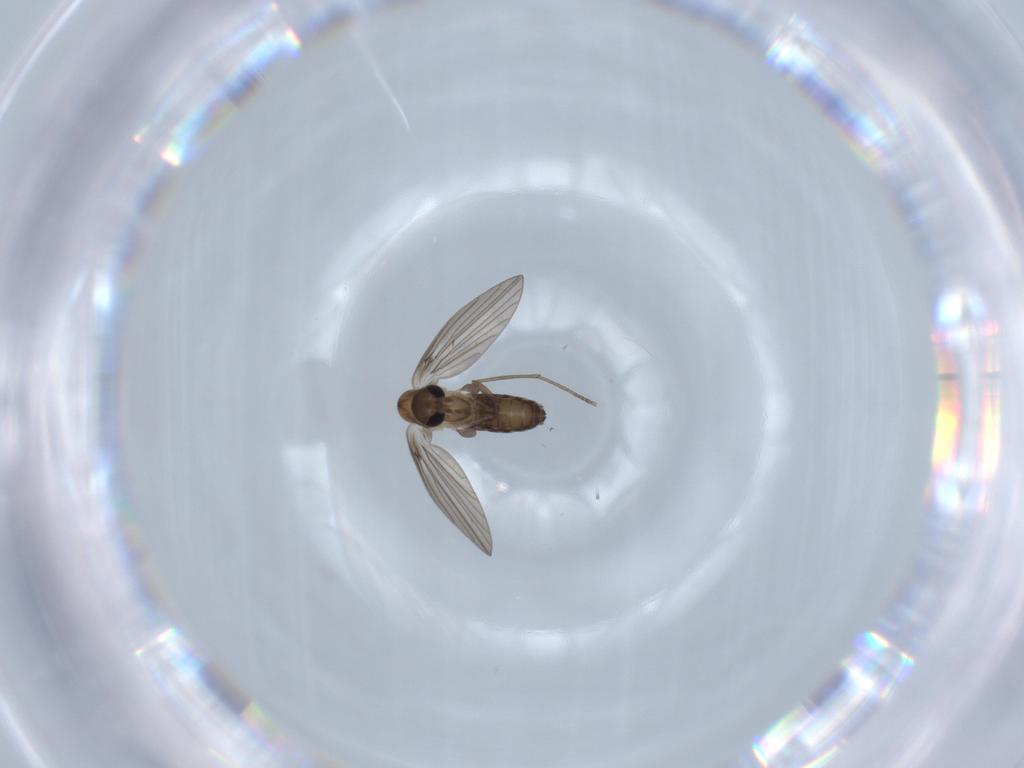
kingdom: Animalia
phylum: Arthropoda
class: Insecta
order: Diptera
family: Psychodidae
